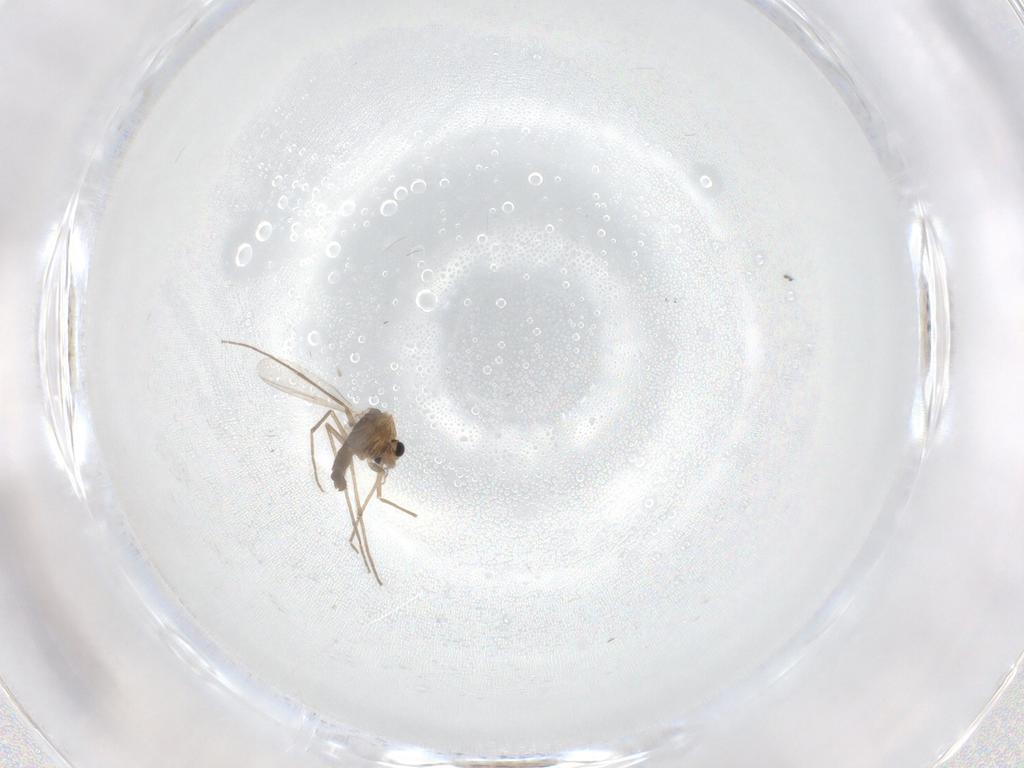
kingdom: Animalia
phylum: Arthropoda
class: Insecta
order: Diptera
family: Chironomidae
